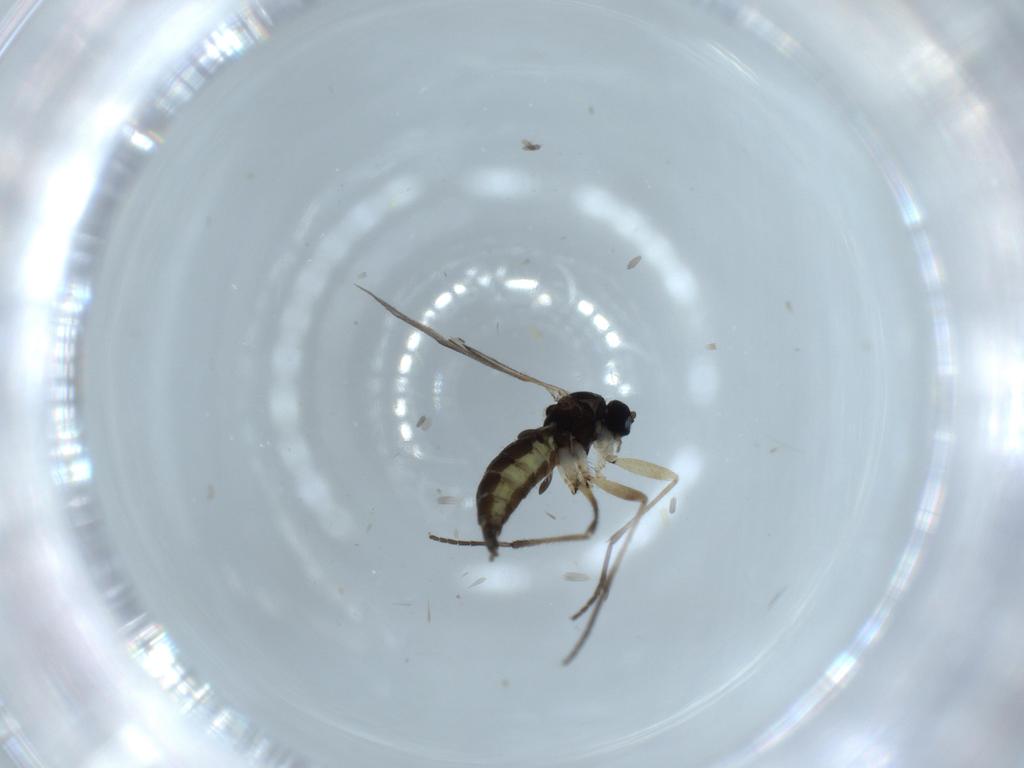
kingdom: Animalia
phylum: Arthropoda
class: Insecta
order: Diptera
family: Sciaridae
